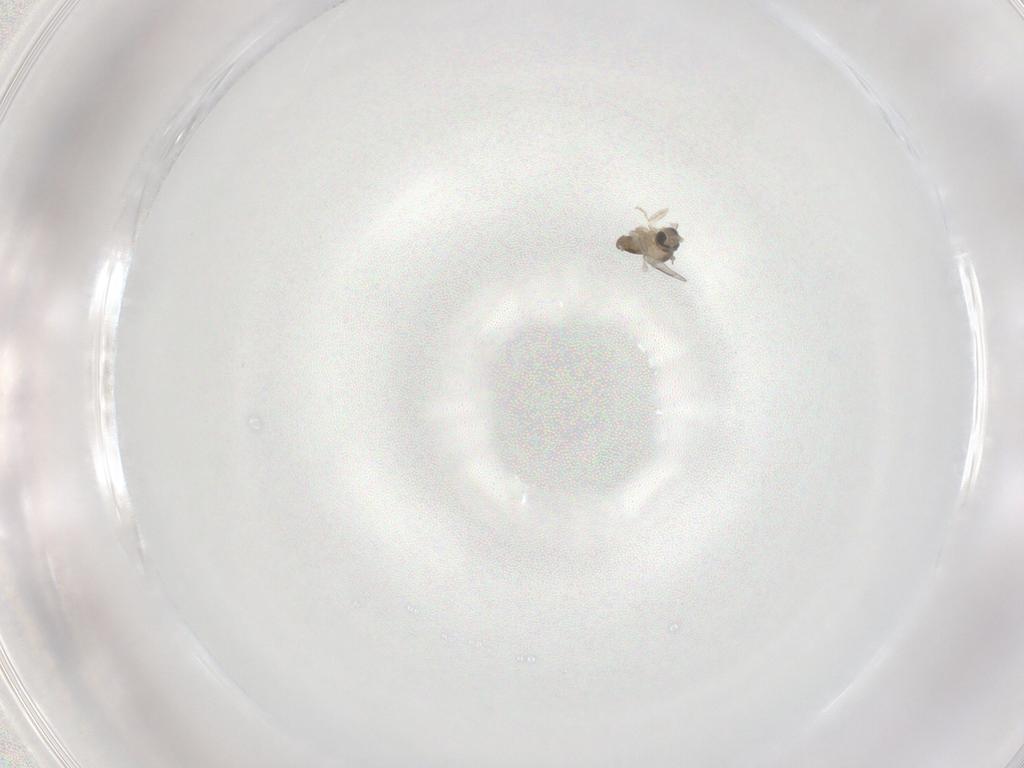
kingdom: Animalia
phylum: Arthropoda
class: Insecta
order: Diptera
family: Cecidomyiidae
